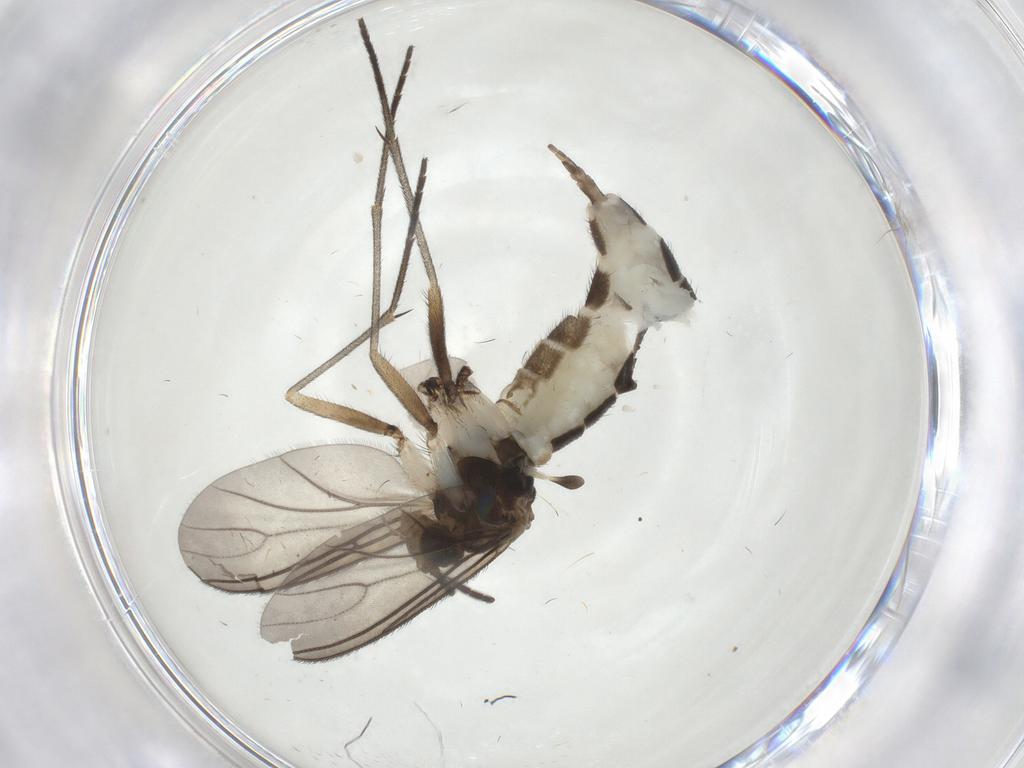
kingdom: Animalia
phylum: Arthropoda
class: Insecta
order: Diptera
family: Sciaridae
